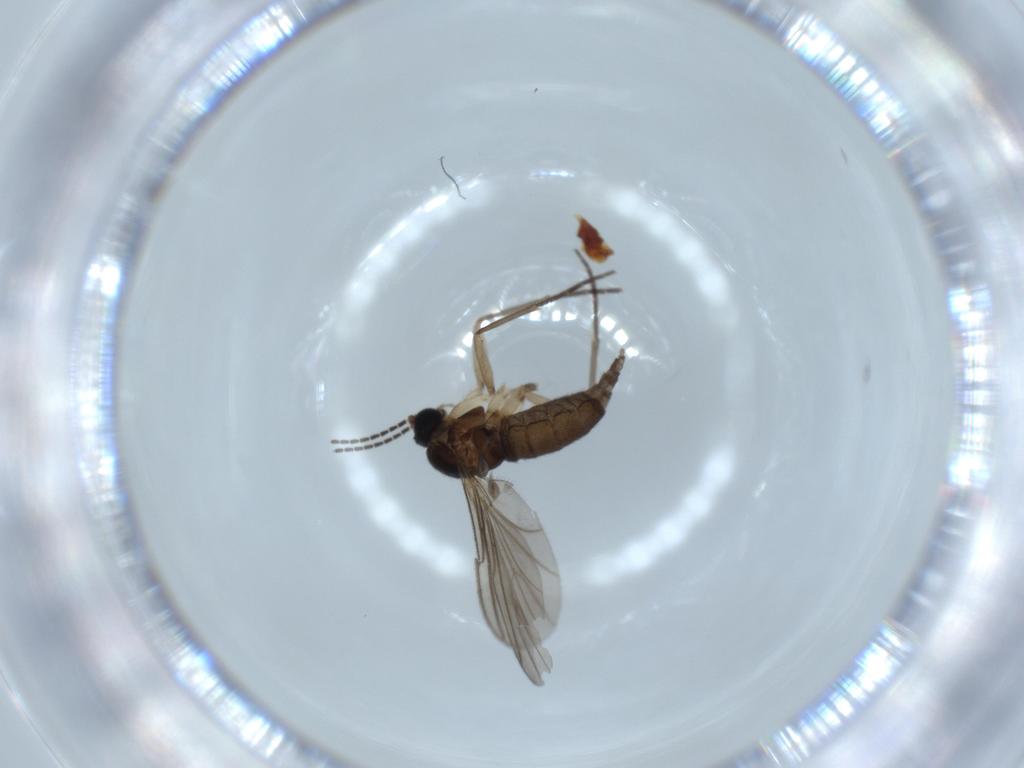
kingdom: Animalia
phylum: Arthropoda
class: Insecta
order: Diptera
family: Sciaridae
